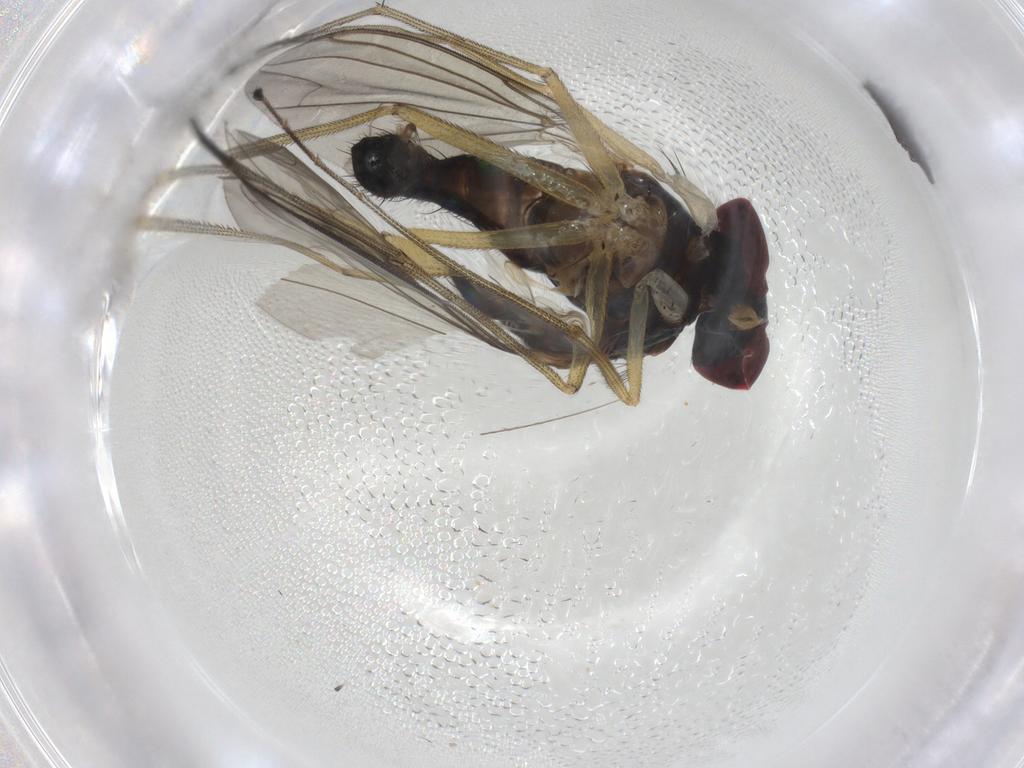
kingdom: Animalia
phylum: Arthropoda
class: Insecta
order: Diptera
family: Dolichopodidae
